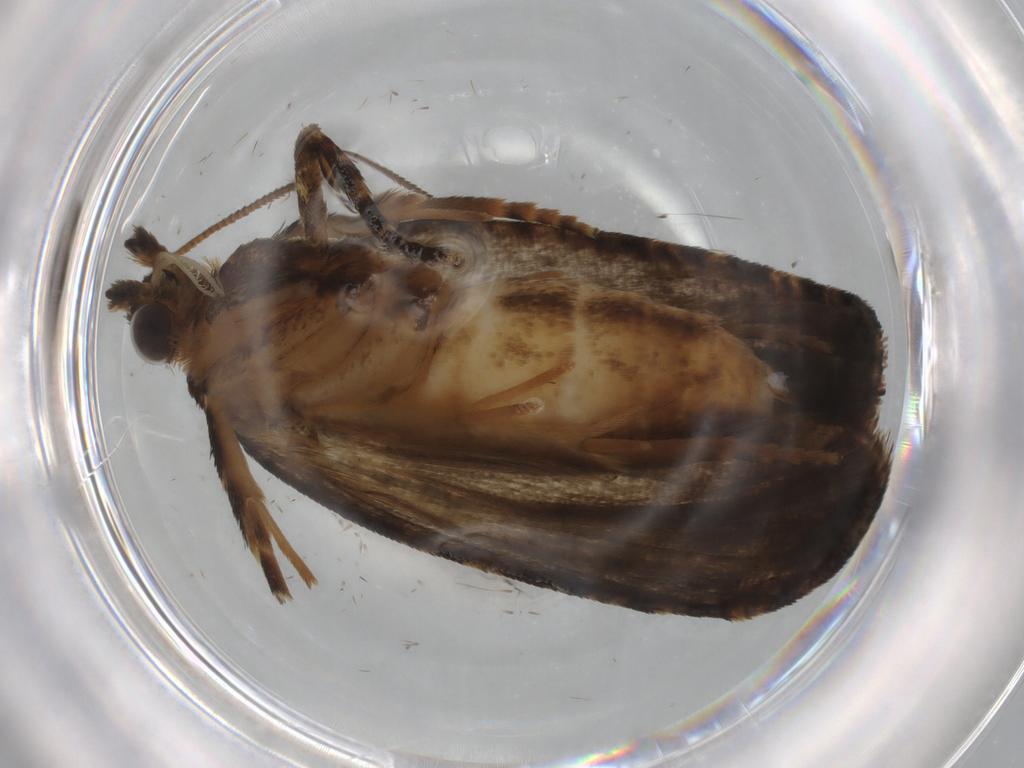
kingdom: Animalia
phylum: Arthropoda
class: Insecta
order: Lepidoptera
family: Tortricidae
